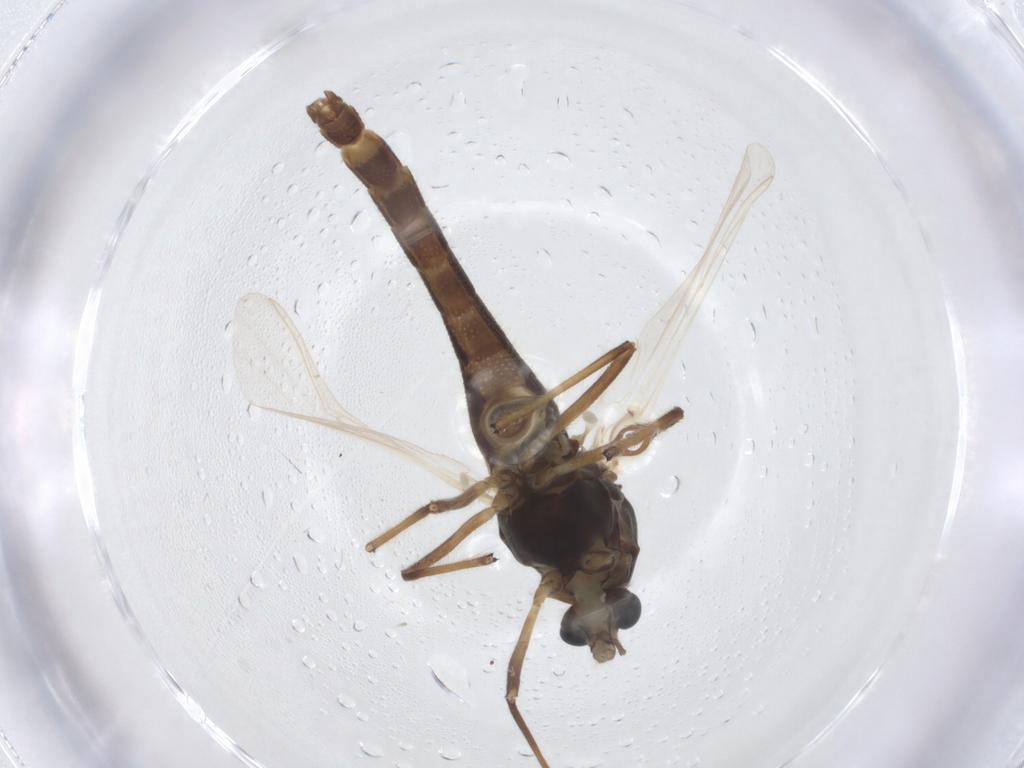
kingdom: Animalia
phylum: Arthropoda
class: Insecta
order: Diptera
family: Chironomidae
